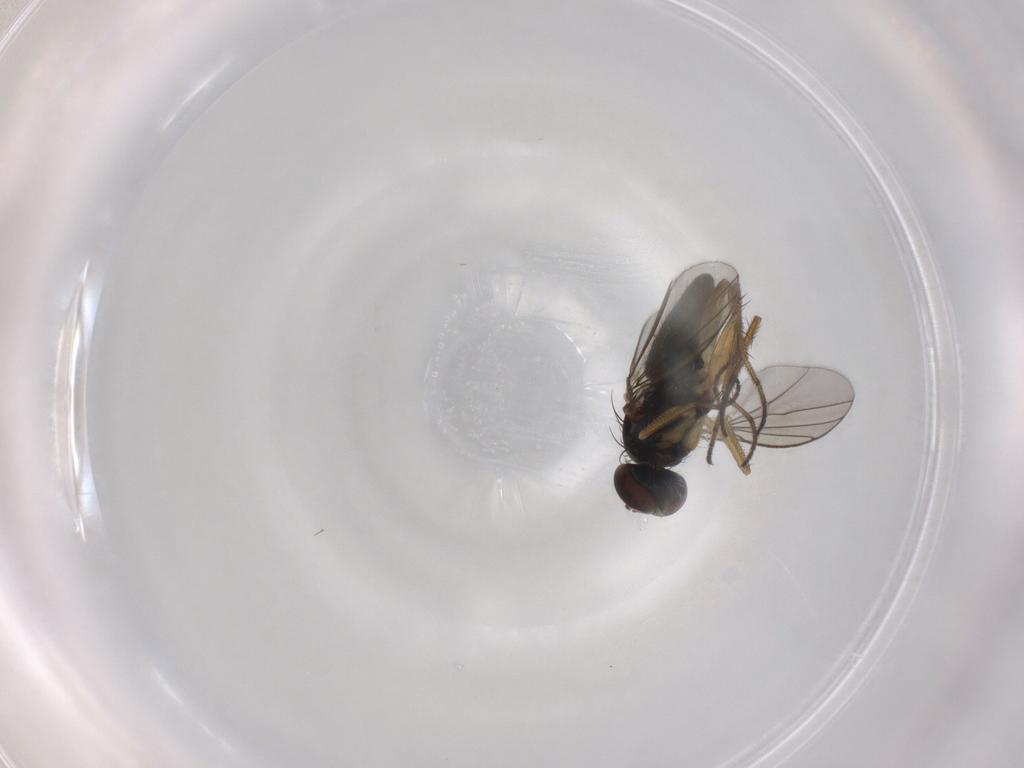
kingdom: Animalia
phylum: Arthropoda
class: Insecta
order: Diptera
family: Dolichopodidae
